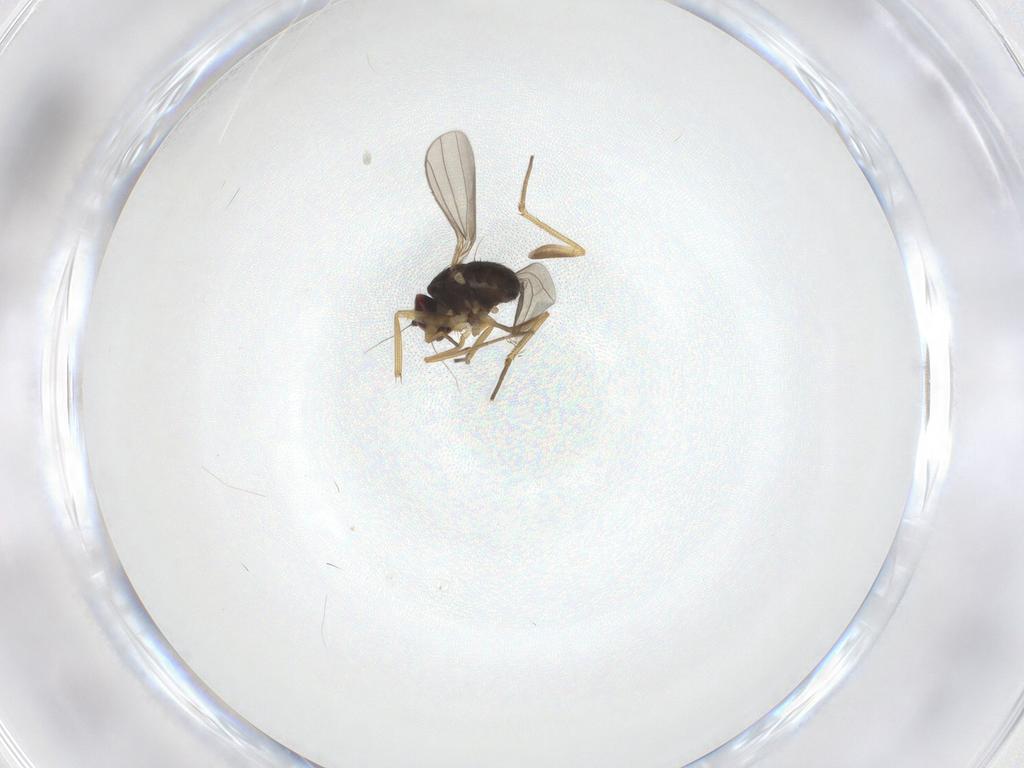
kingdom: Animalia
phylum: Arthropoda
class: Insecta
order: Diptera
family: Dolichopodidae
